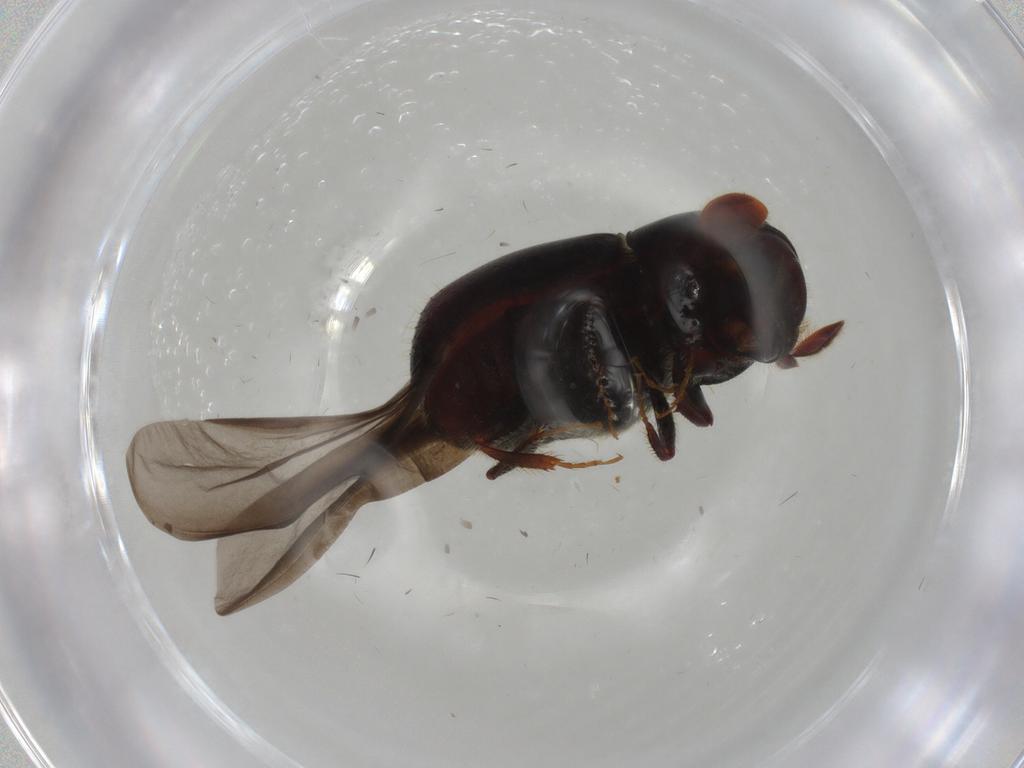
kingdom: Animalia
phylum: Arthropoda
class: Insecta
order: Coleoptera
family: Curculionidae
